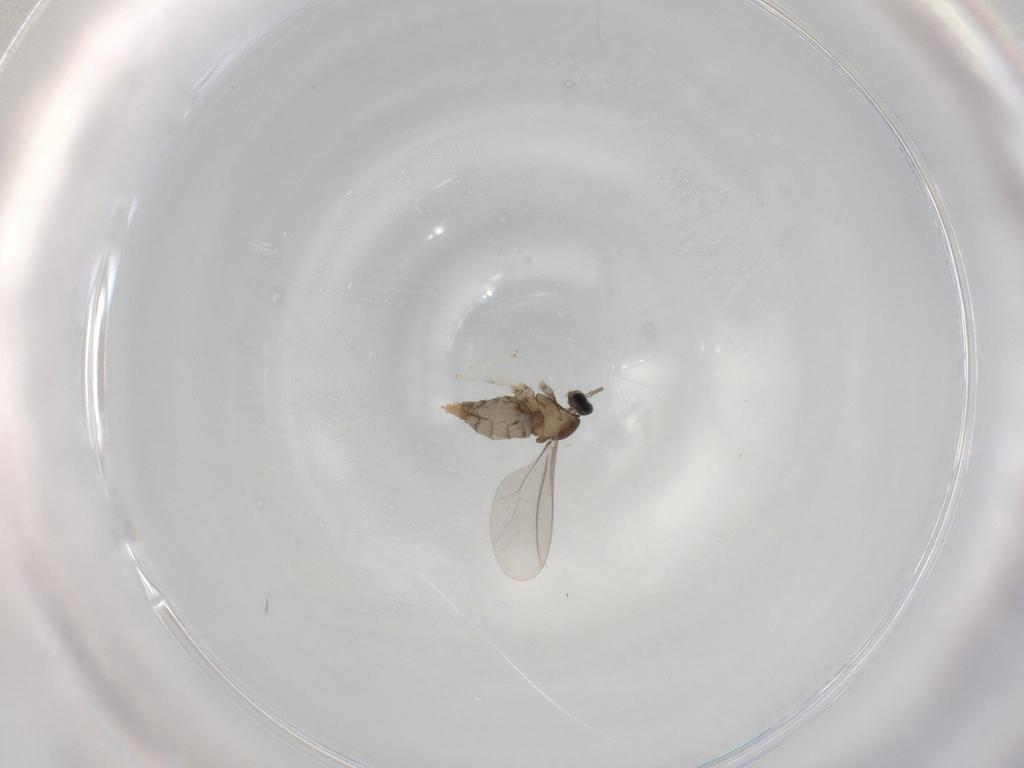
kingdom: Animalia
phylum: Arthropoda
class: Insecta
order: Diptera
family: Cecidomyiidae
